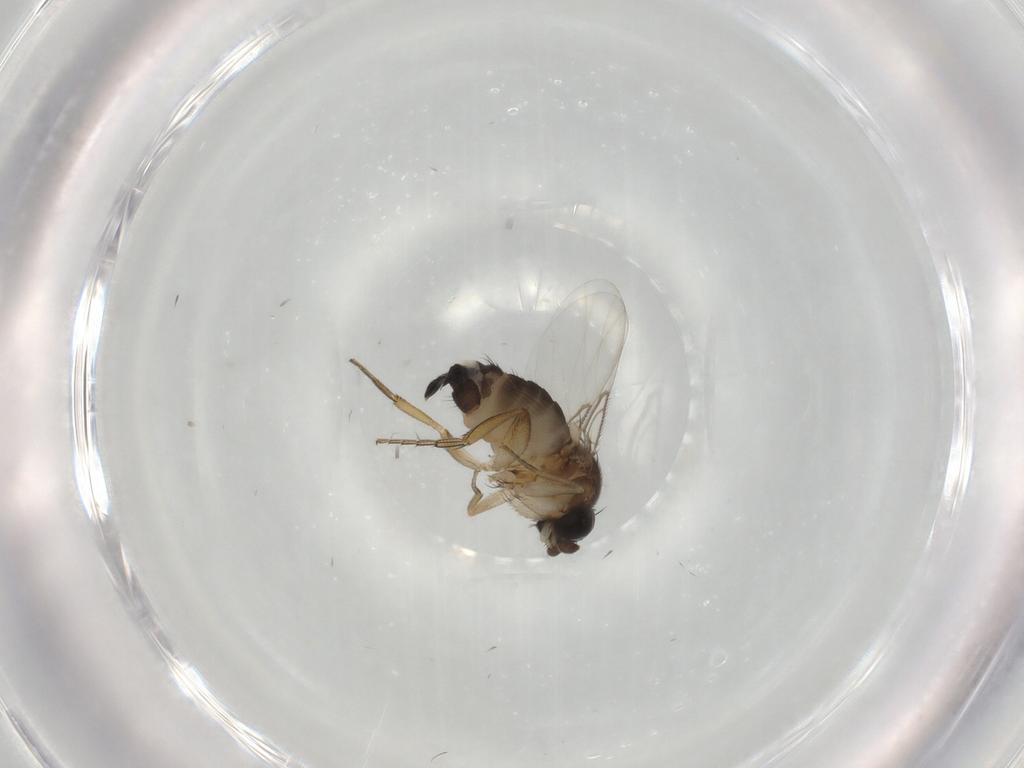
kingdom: Animalia
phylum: Arthropoda
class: Insecta
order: Diptera
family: Phoridae
